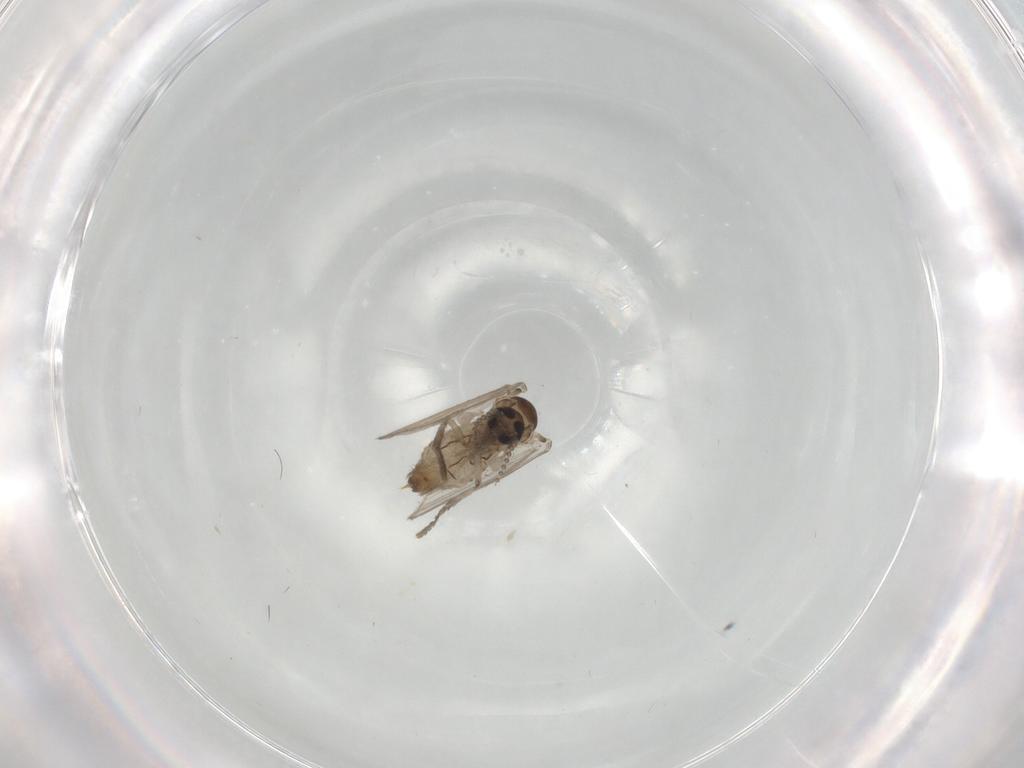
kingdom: Animalia
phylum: Arthropoda
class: Insecta
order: Diptera
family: Psychodidae
